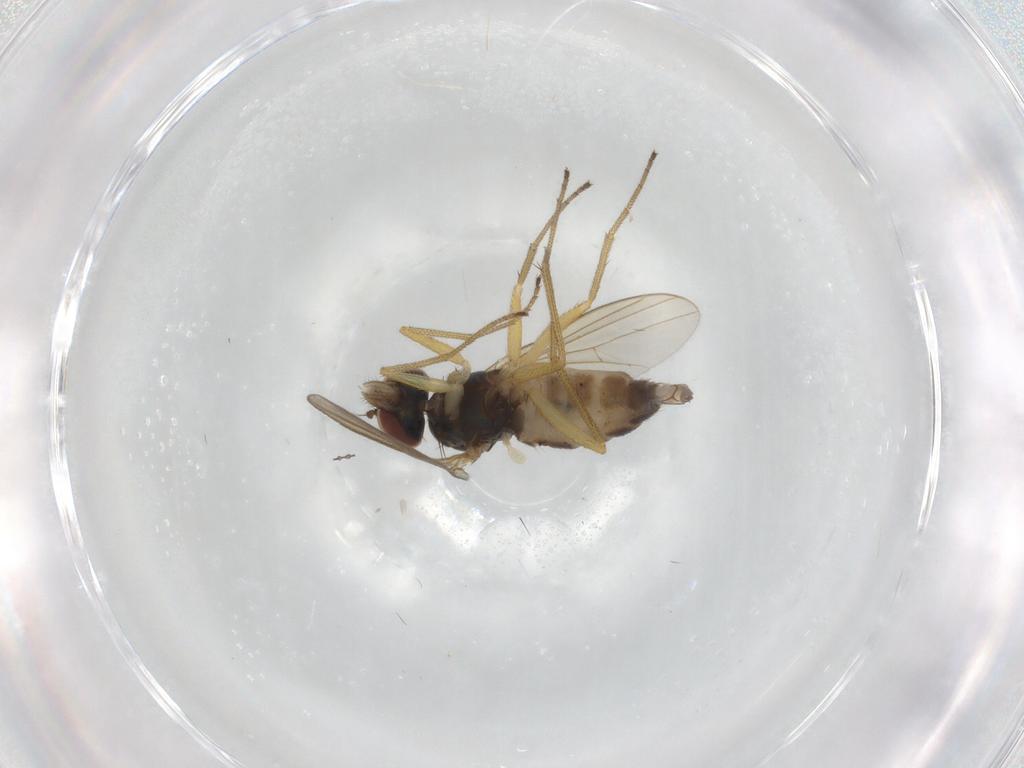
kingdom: Animalia
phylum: Arthropoda
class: Insecta
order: Diptera
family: Dolichopodidae
